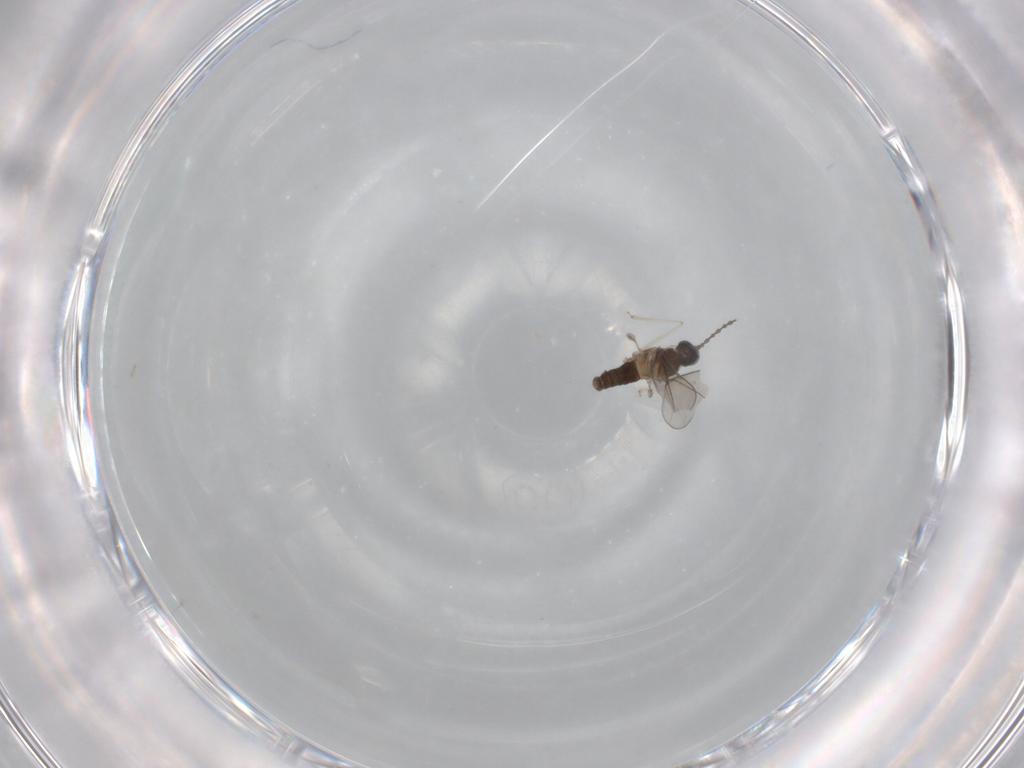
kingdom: Animalia
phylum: Arthropoda
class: Insecta
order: Diptera
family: Cecidomyiidae
